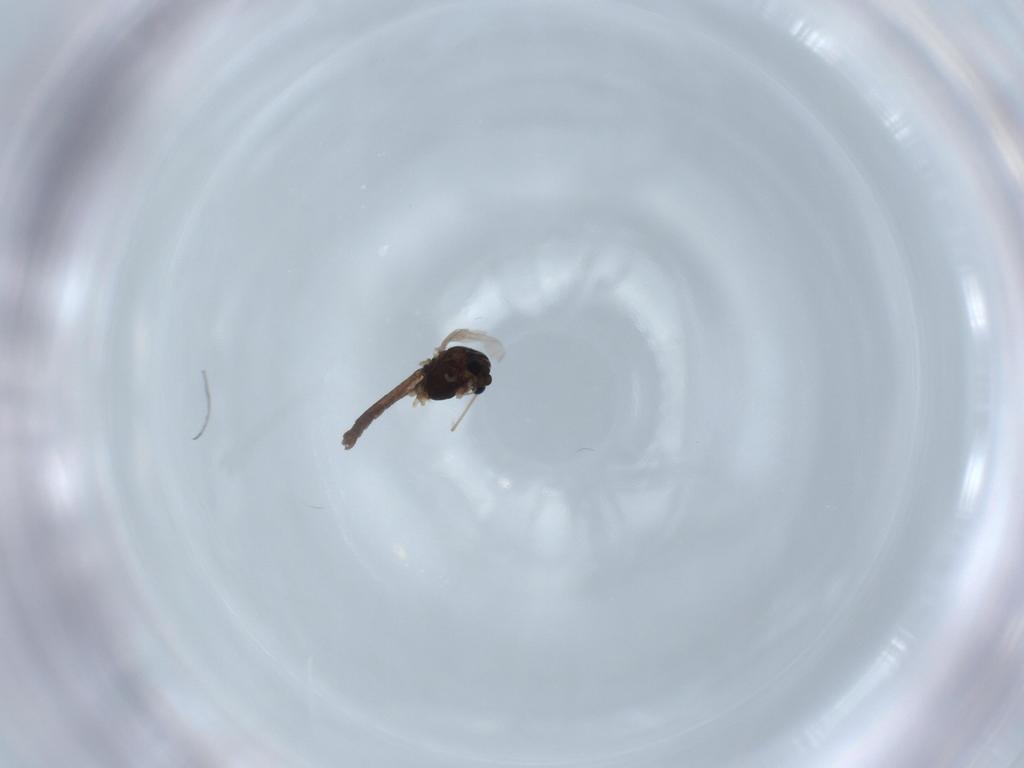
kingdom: Animalia
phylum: Arthropoda
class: Insecta
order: Diptera
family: Chironomidae
